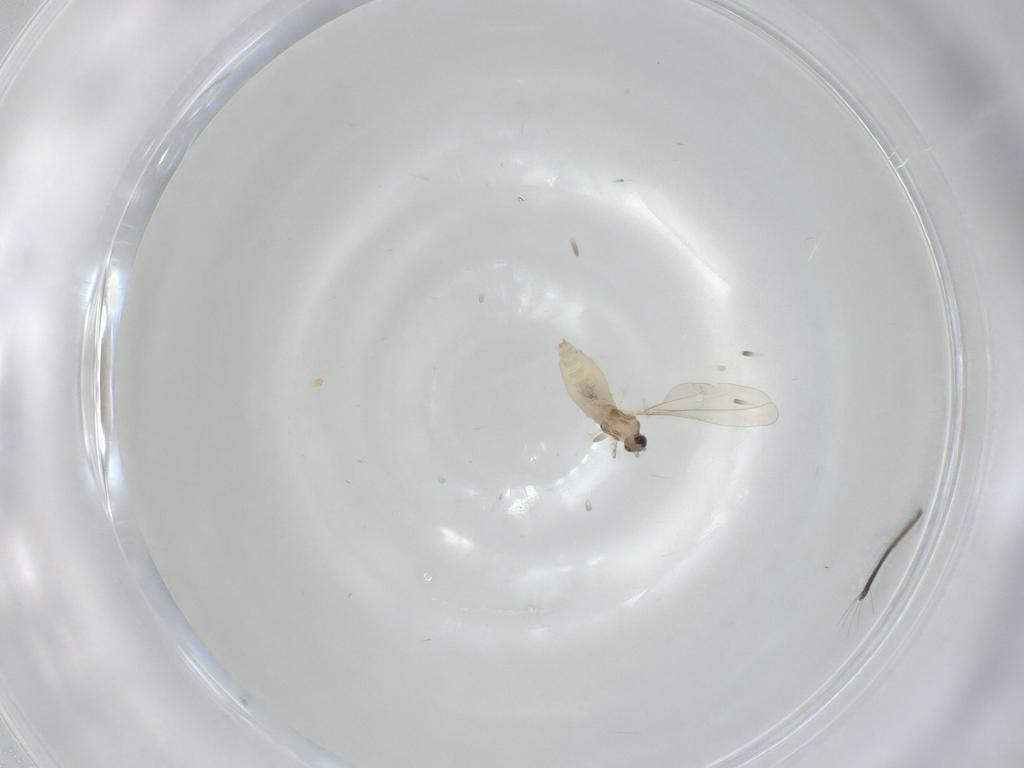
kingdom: Animalia
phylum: Arthropoda
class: Insecta
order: Diptera
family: Cecidomyiidae
